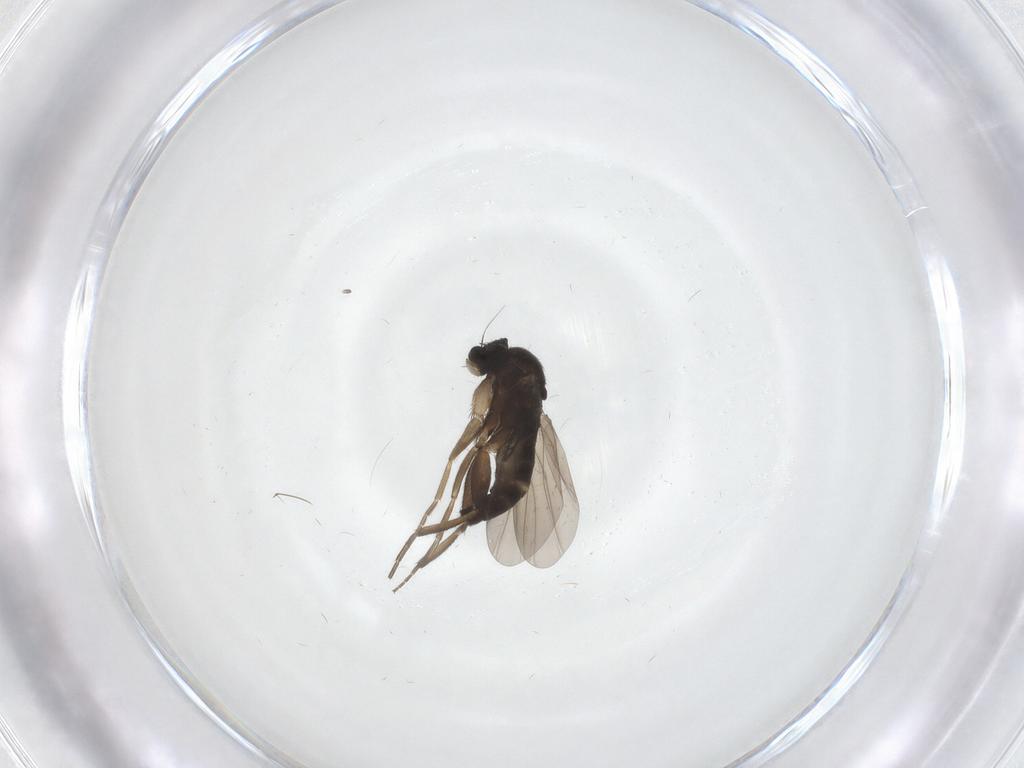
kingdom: Animalia
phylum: Arthropoda
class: Insecta
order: Diptera
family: Phoridae
